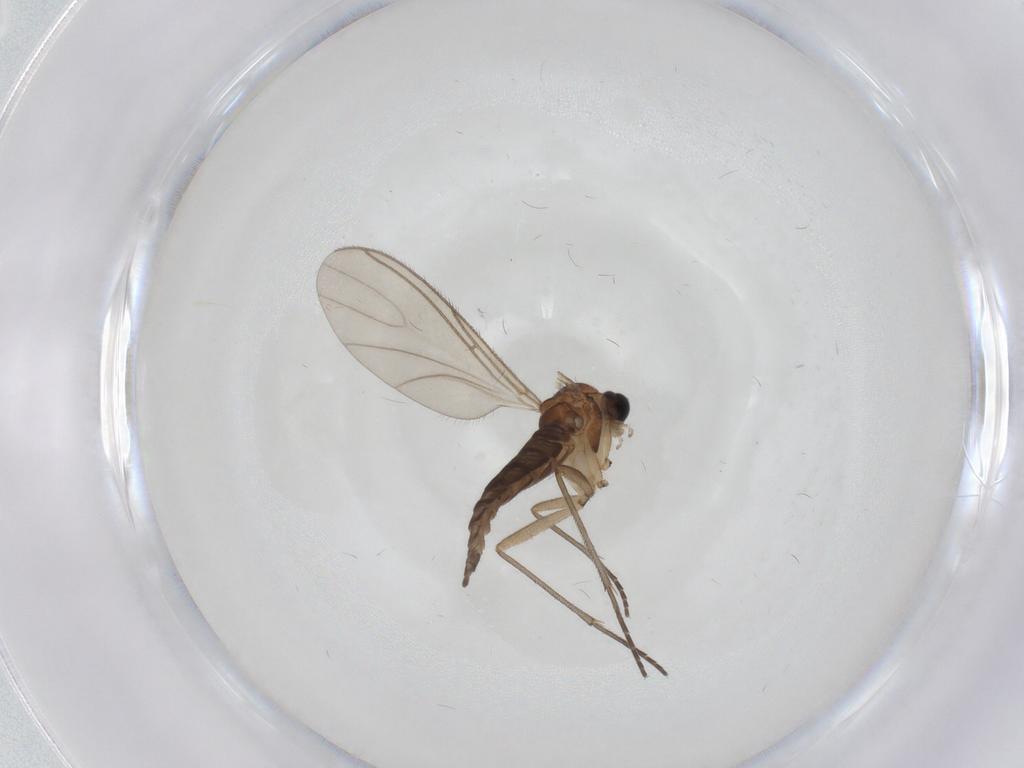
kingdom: Animalia
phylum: Arthropoda
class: Insecta
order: Diptera
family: Sciaridae
